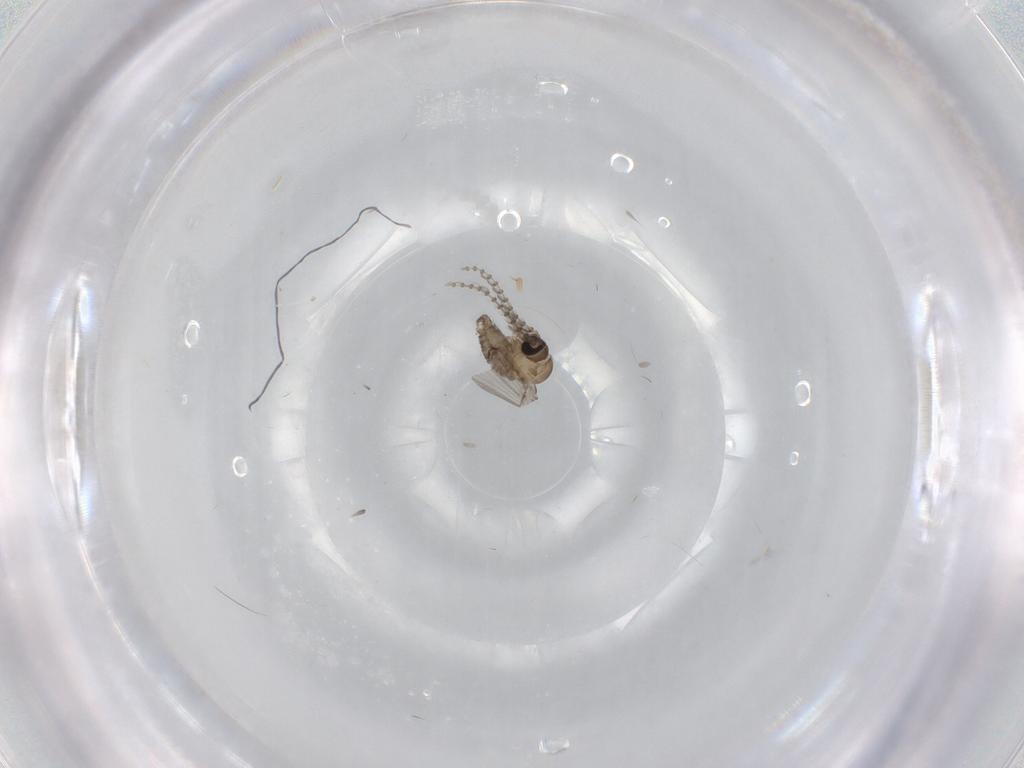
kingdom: Animalia
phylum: Arthropoda
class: Insecta
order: Diptera
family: Psychodidae
